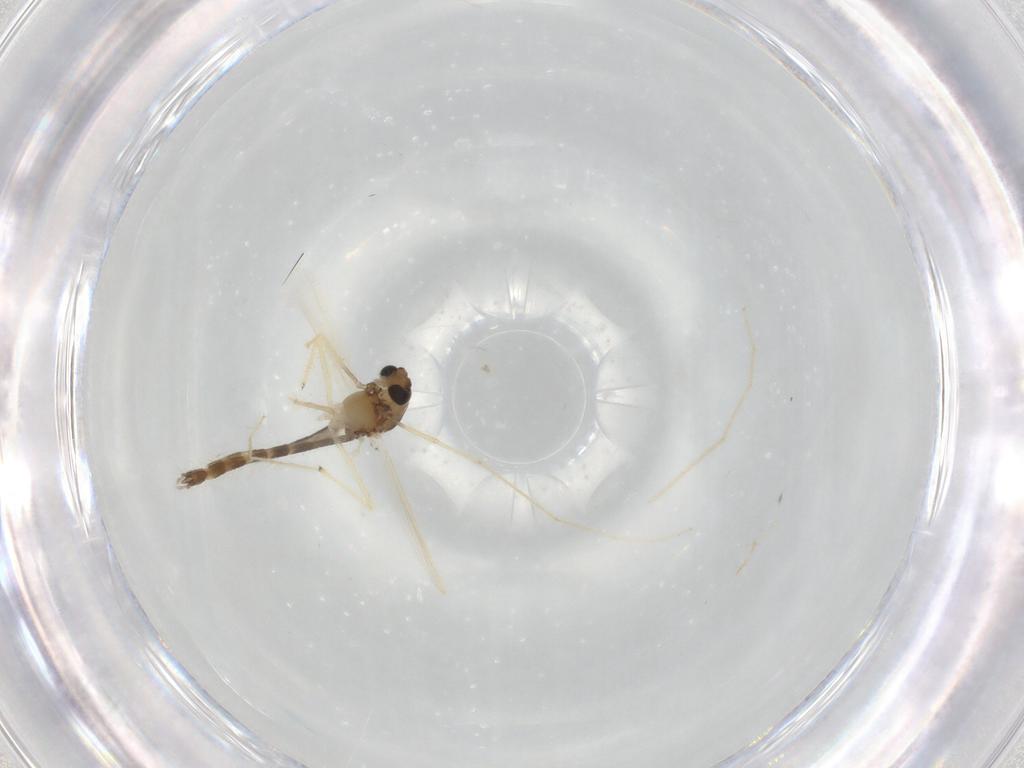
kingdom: Animalia
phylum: Arthropoda
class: Insecta
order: Diptera
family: Chironomidae
